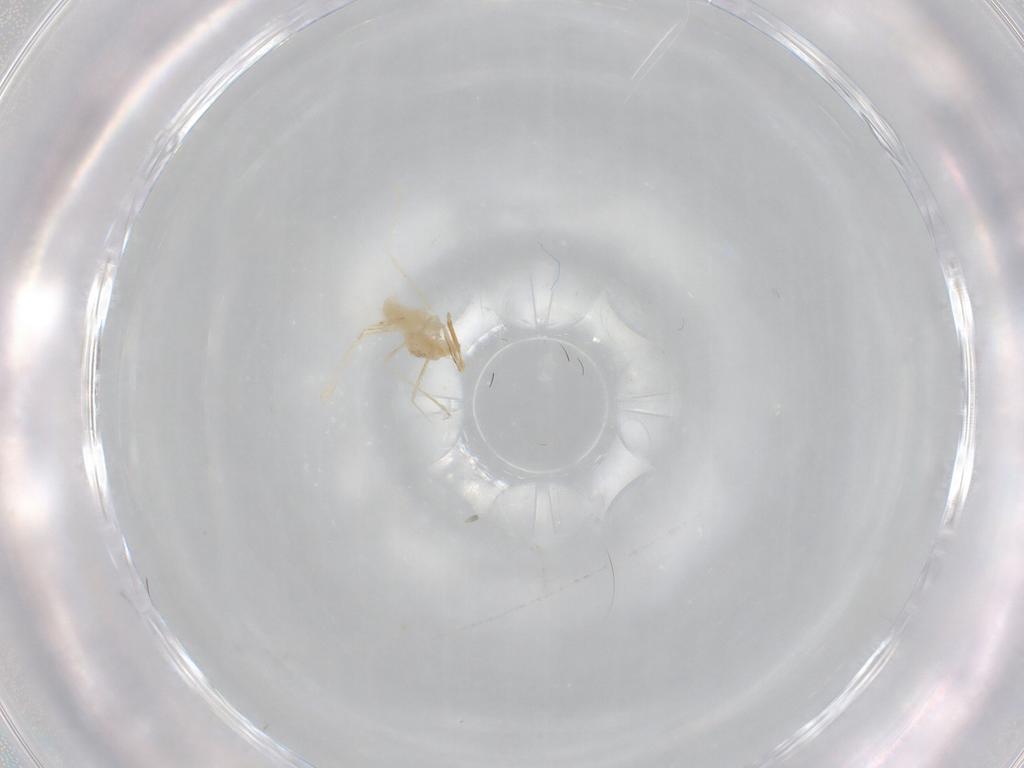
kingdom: Animalia
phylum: Arthropoda
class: Insecta
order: Diptera
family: Cecidomyiidae
